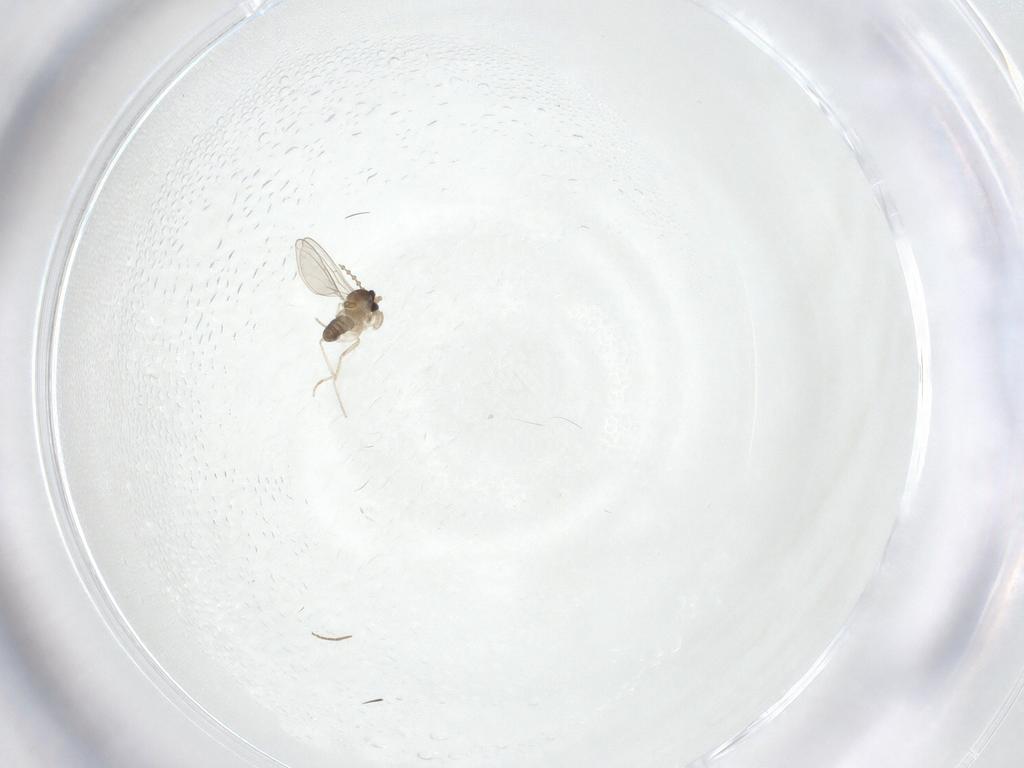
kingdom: Animalia
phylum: Arthropoda
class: Insecta
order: Diptera
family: Cecidomyiidae
